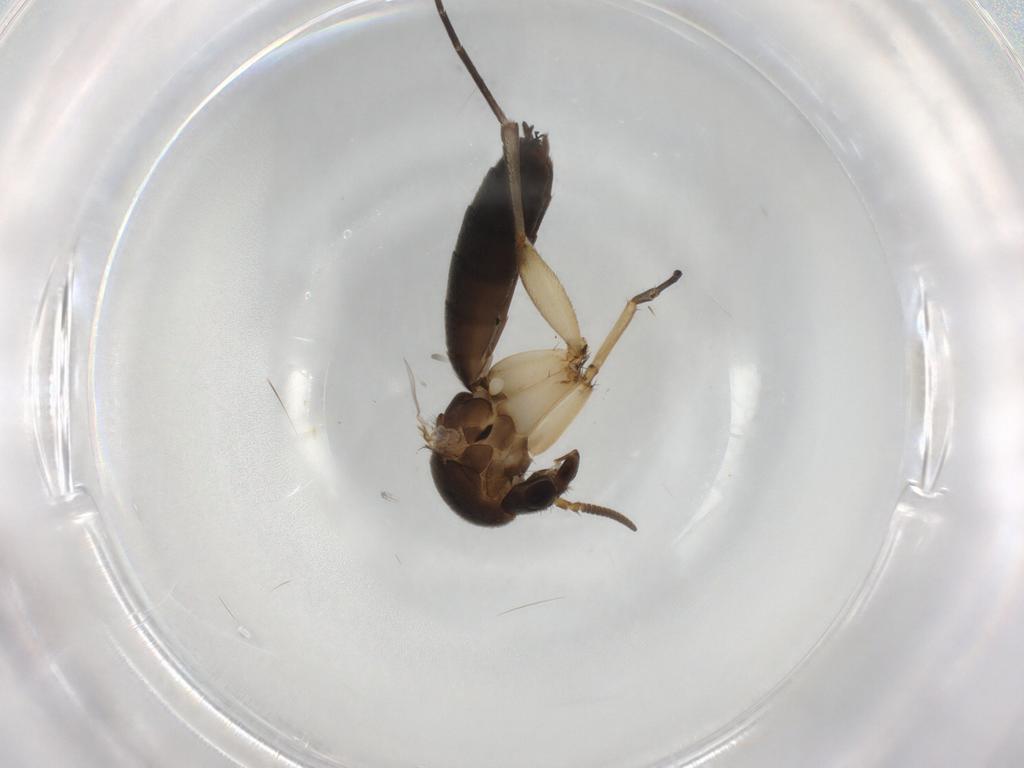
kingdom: Animalia
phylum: Arthropoda
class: Insecta
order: Diptera
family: Mycetophilidae
